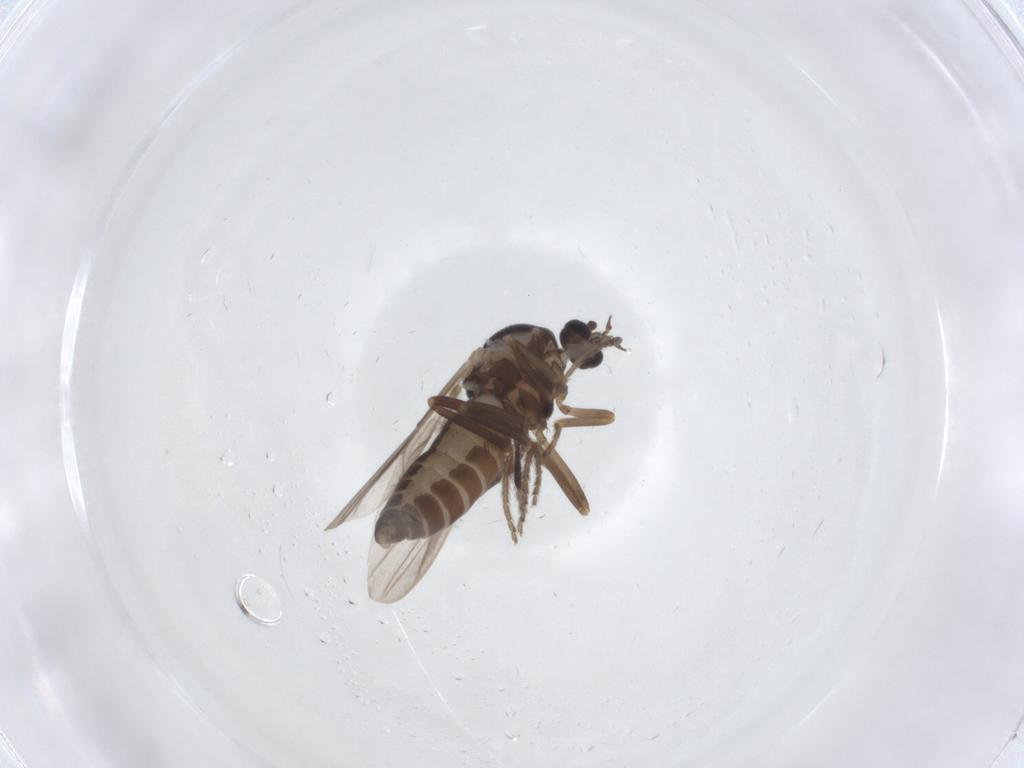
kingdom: Animalia
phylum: Arthropoda
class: Insecta
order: Diptera
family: Ceratopogonidae
